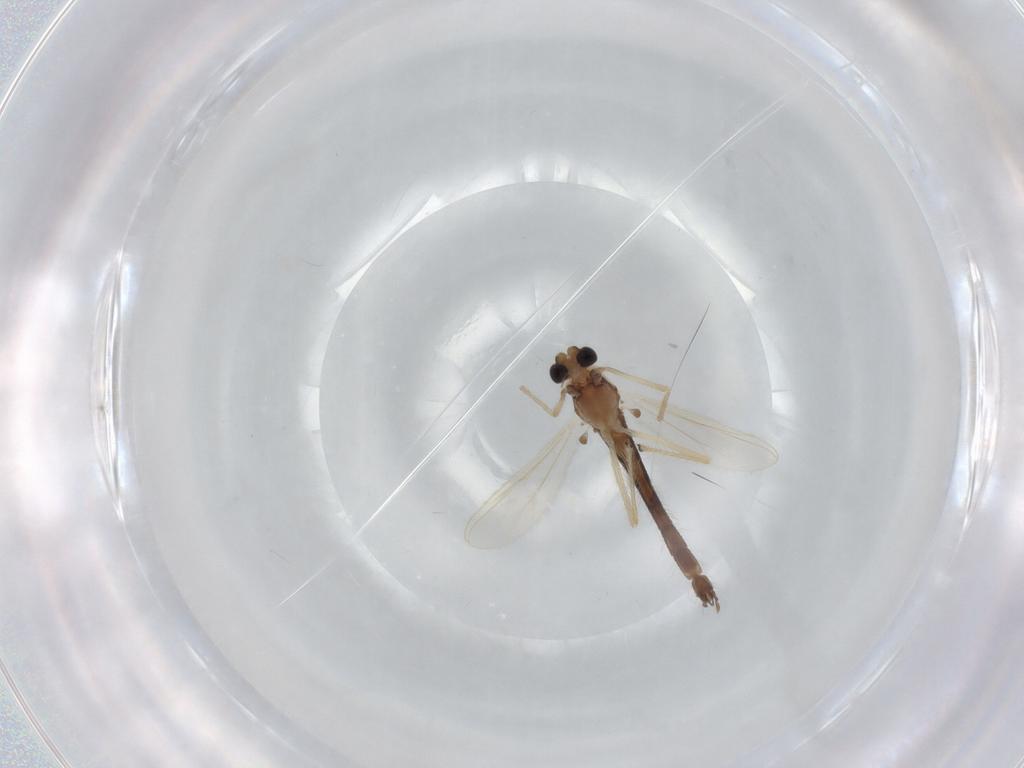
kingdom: Animalia
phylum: Arthropoda
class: Insecta
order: Diptera
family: Chironomidae
